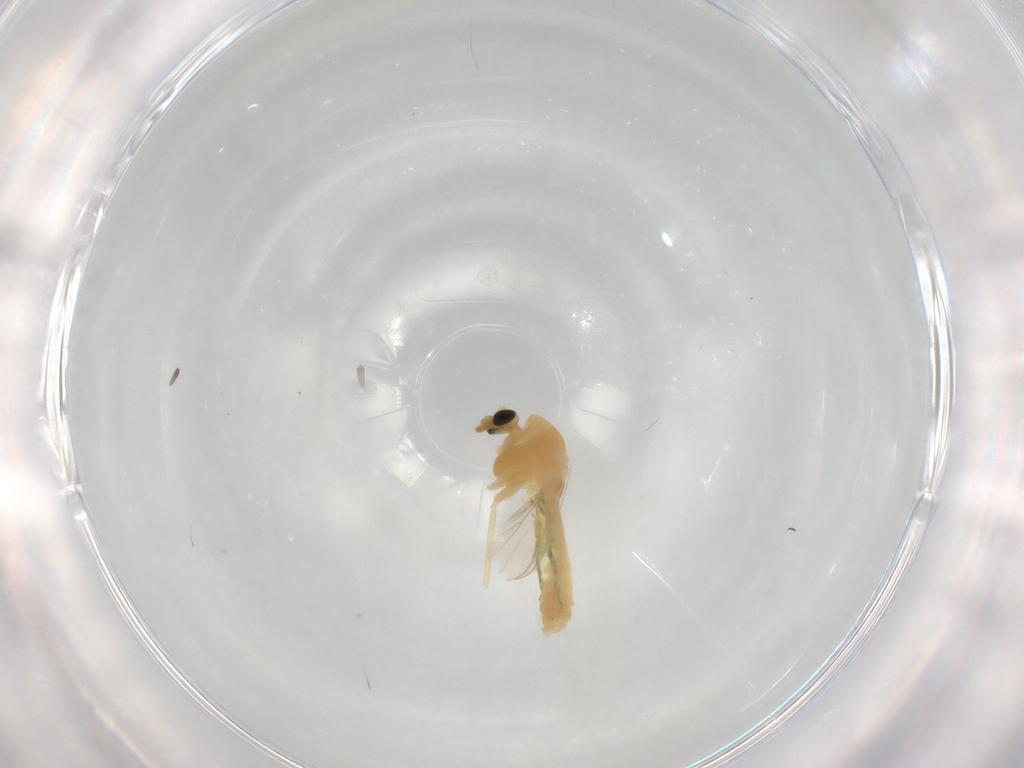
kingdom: Animalia
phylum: Arthropoda
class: Insecta
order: Diptera
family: Chironomidae
